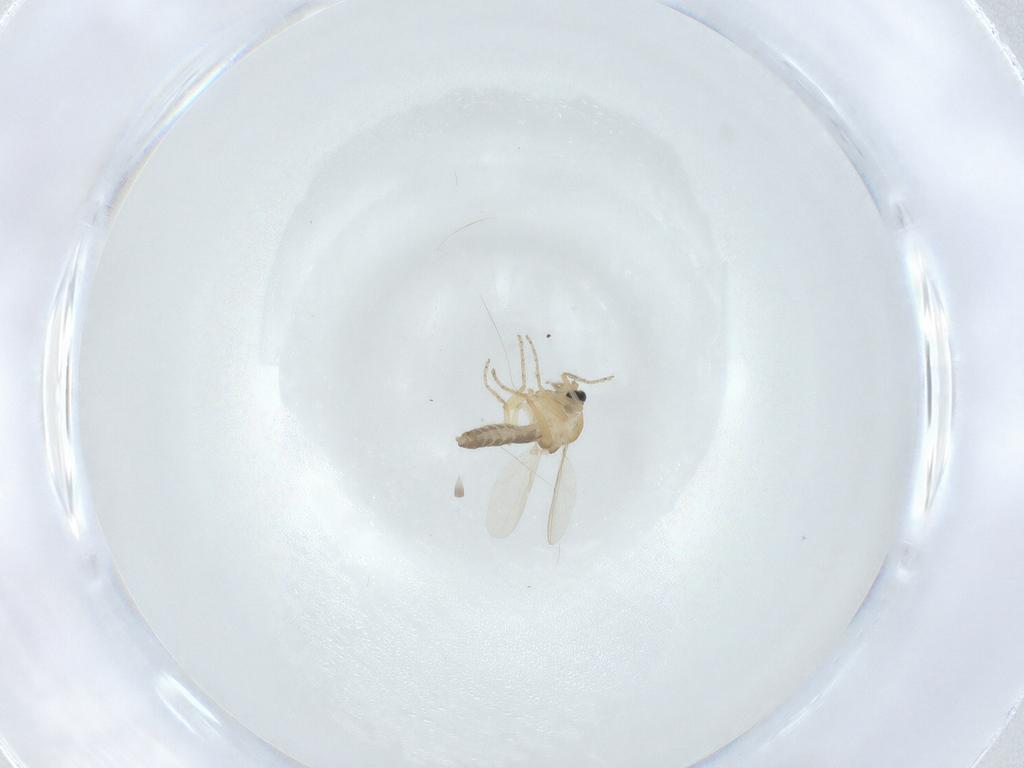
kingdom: Animalia
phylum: Arthropoda
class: Insecta
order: Diptera
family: Ceratopogonidae
